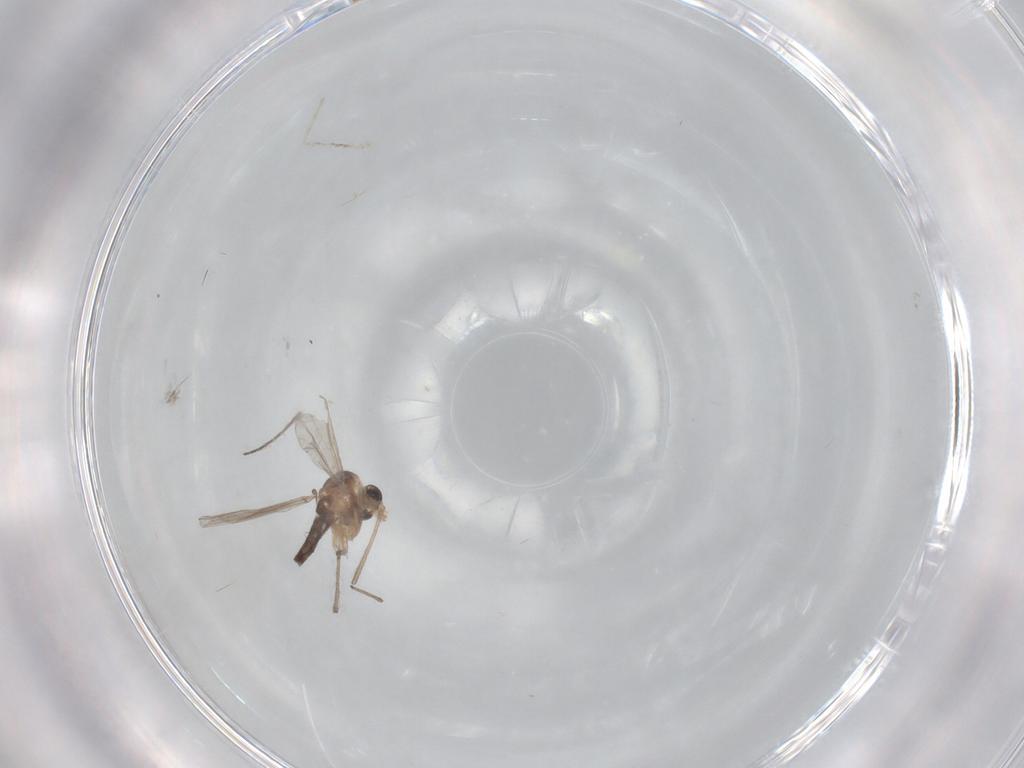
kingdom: Animalia
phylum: Arthropoda
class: Insecta
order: Diptera
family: Chironomidae
